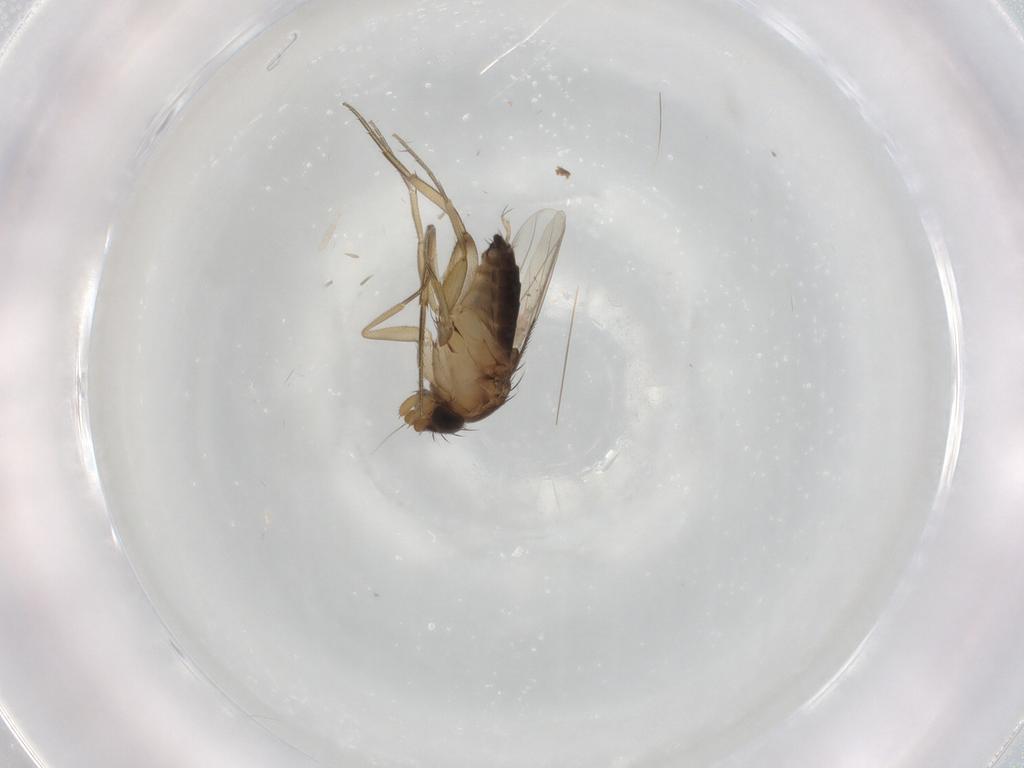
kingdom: Animalia
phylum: Arthropoda
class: Insecta
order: Diptera
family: Phoridae
